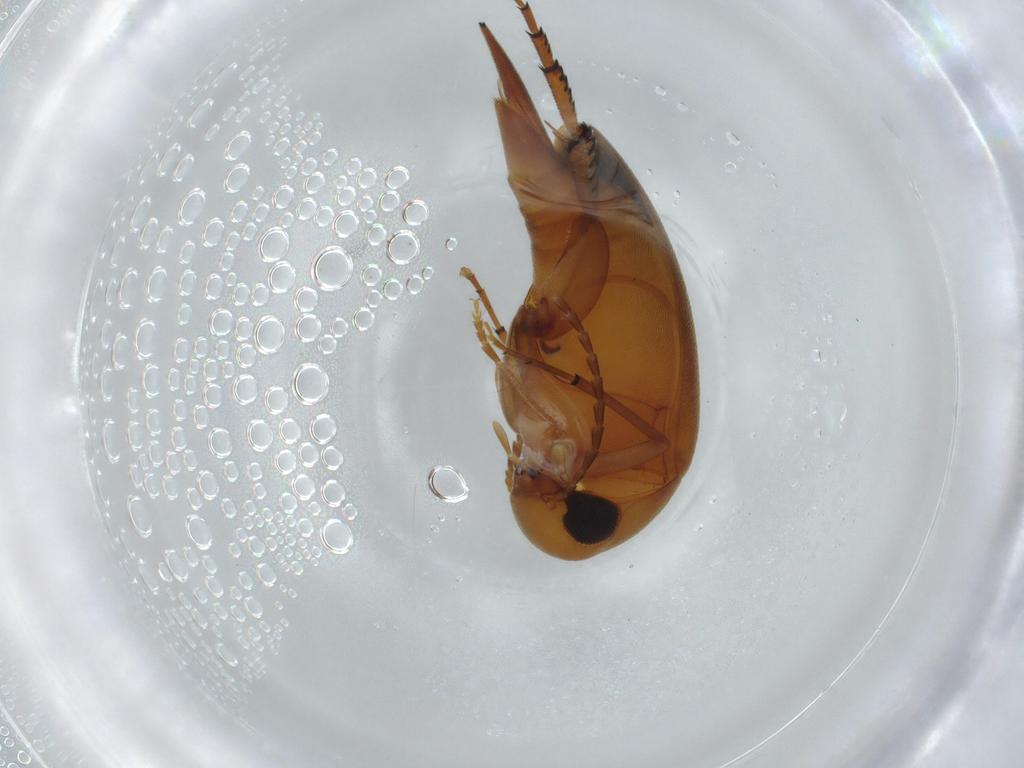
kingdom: Animalia
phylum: Arthropoda
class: Insecta
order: Coleoptera
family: Mordellidae
